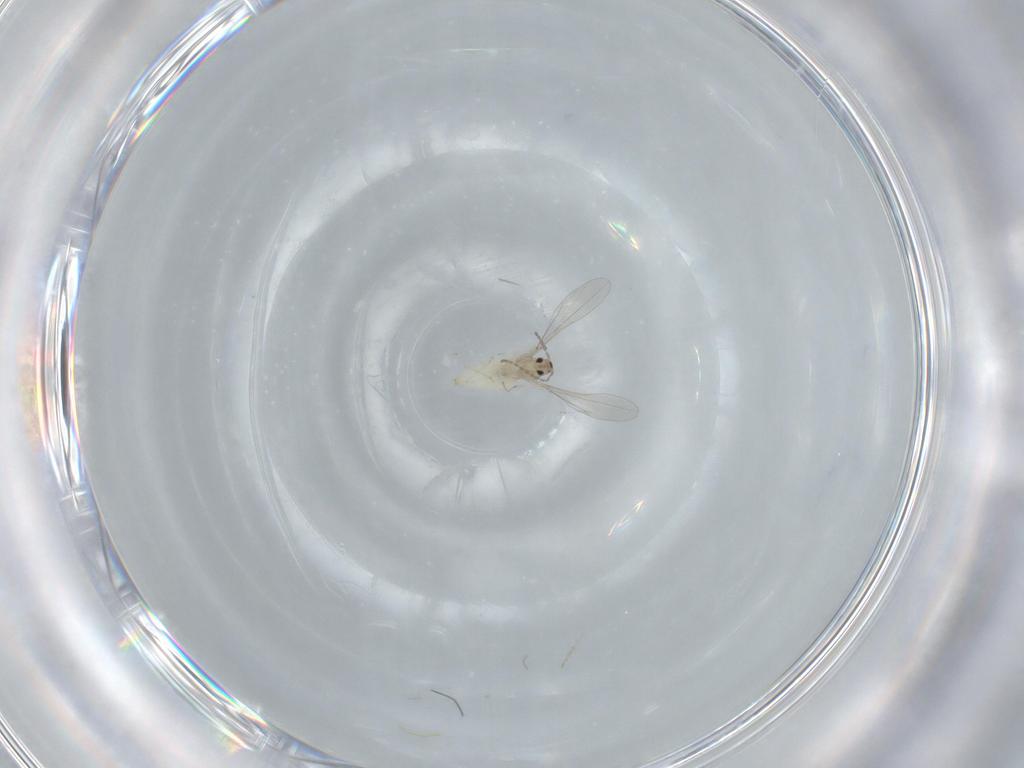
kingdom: Animalia
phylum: Arthropoda
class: Insecta
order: Diptera
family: Cecidomyiidae
